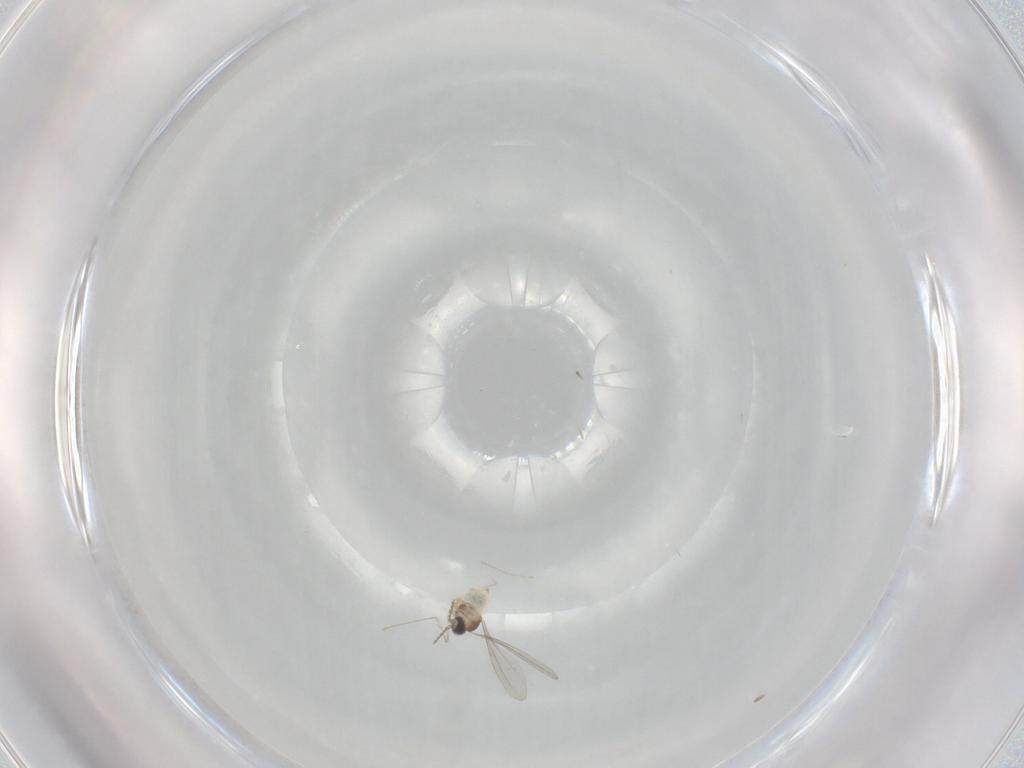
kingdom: Animalia
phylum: Arthropoda
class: Insecta
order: Diptera
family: Cecidomyiidae
